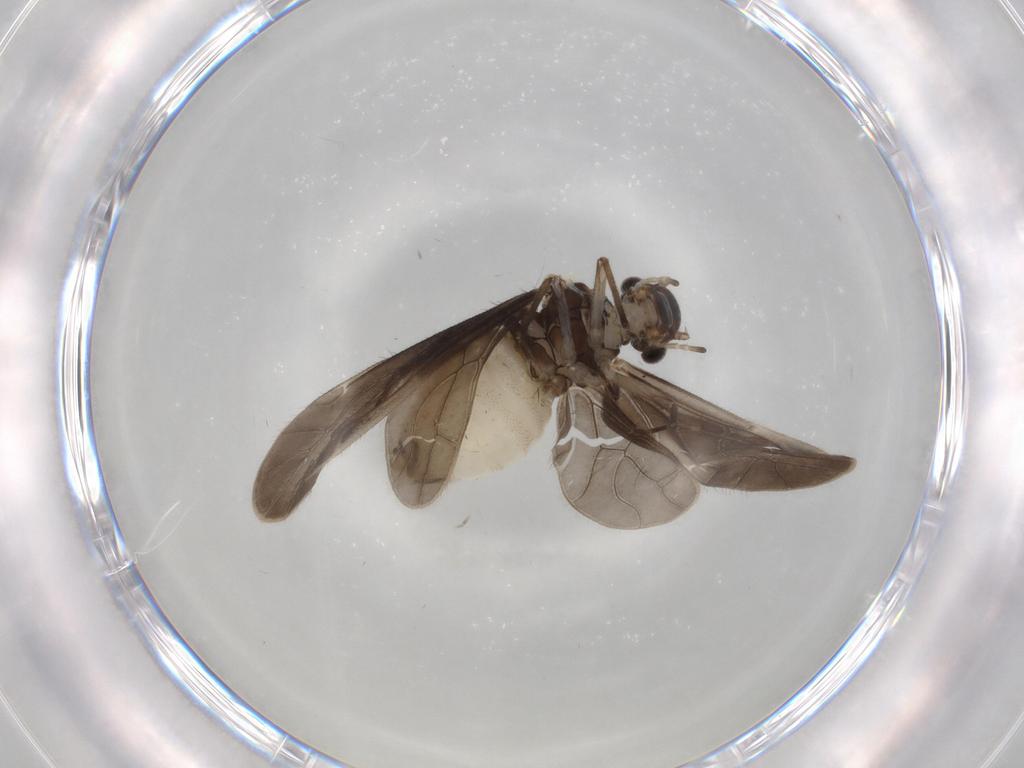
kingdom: Animalia
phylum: Arthropoda
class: Insecta
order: Psocodea
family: Caeciliusidae
